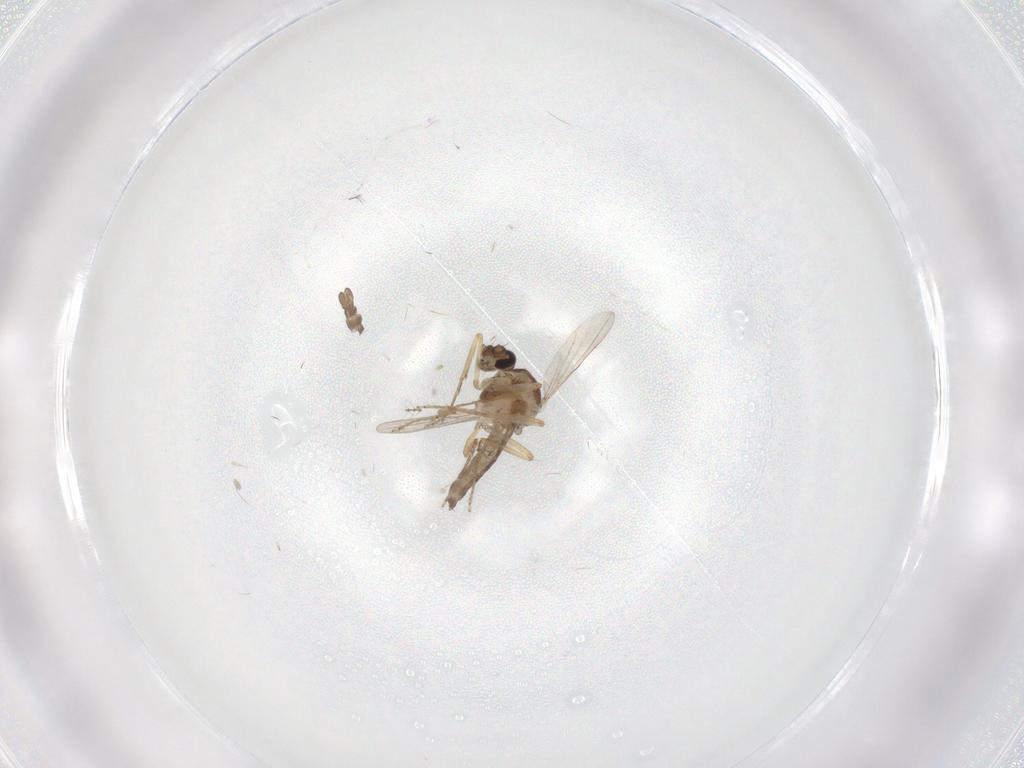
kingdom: Animalia
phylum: Arthropoda
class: Insecta
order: Diptera
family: Ceratopogonidae
